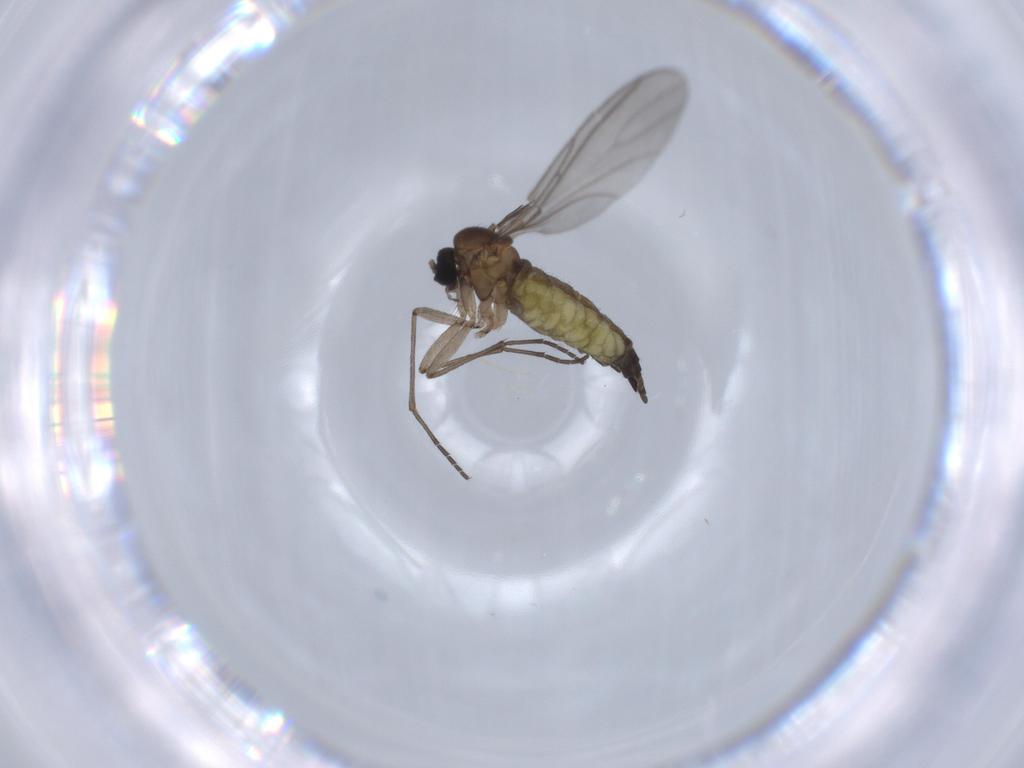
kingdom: Animalia
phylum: Arthropoda
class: Insecta
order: Diptera
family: Sciaridae
